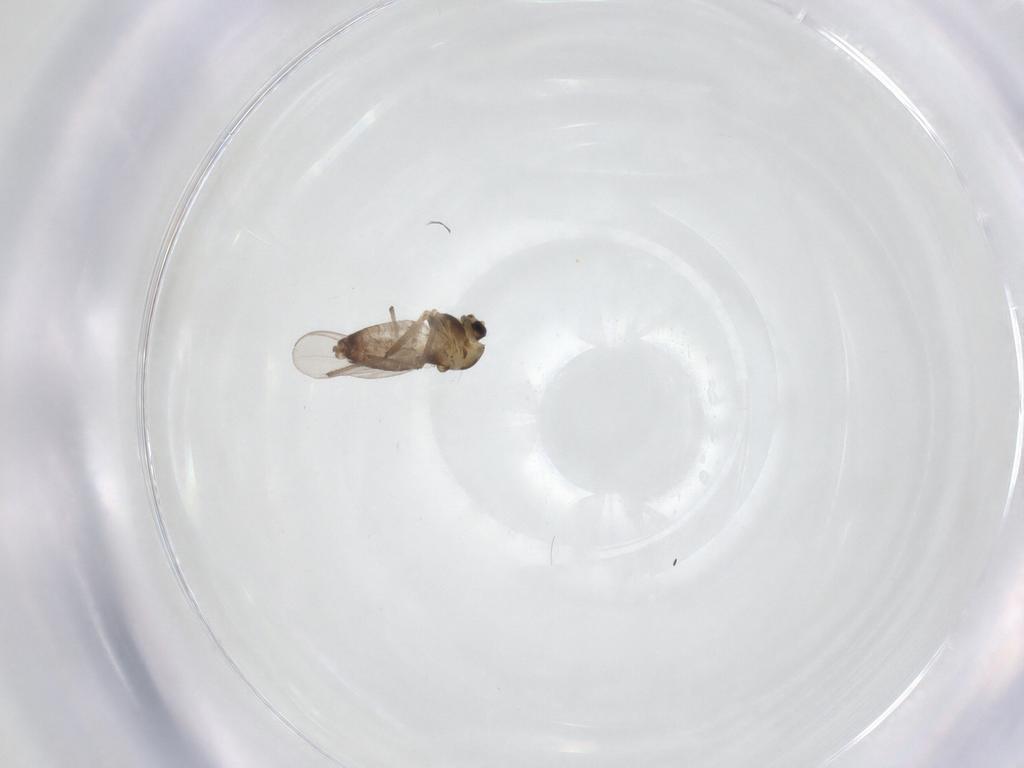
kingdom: Animalia
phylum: Arthropoda
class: Insecta
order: Diptera
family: Chironomidae
